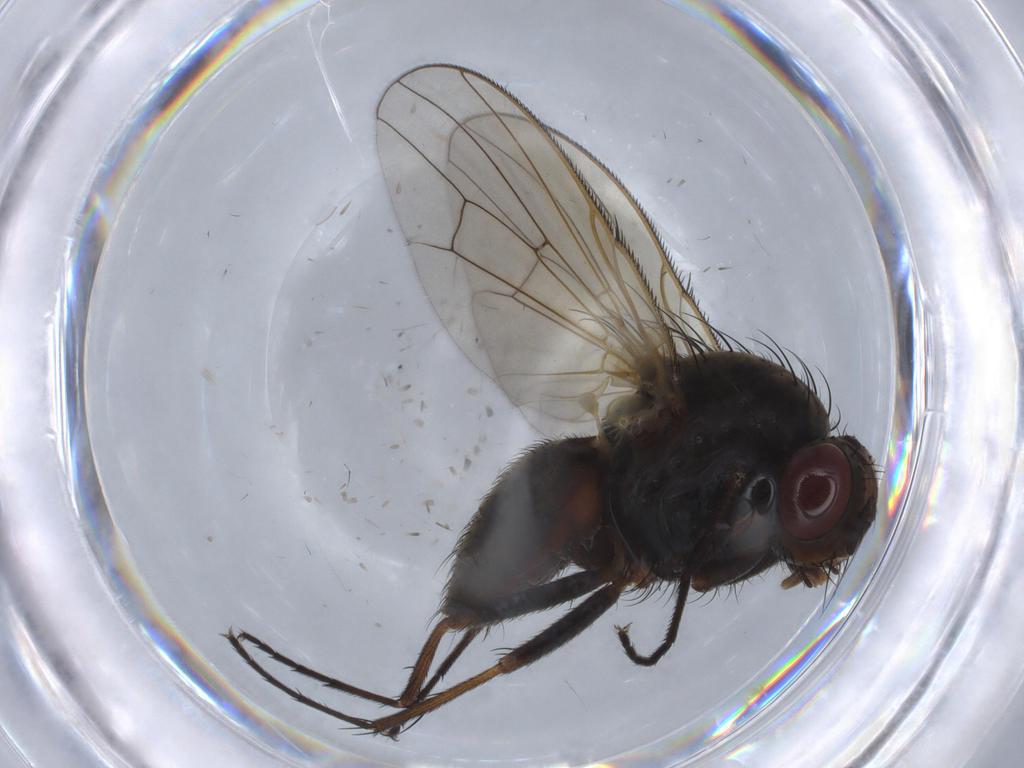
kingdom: Animalia
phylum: Arthropoda
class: Insecta
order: Diptera
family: Anthomyiidae
